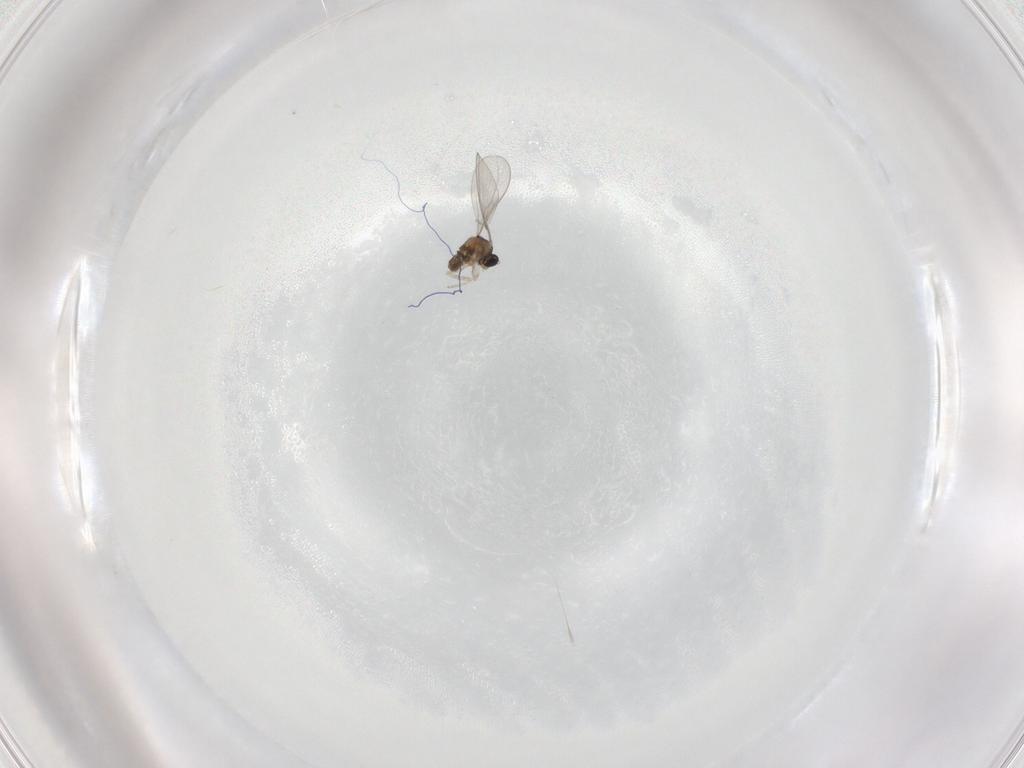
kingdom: Animalia
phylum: Arthropoda
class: Insecta
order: Diptera
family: Cecidomyiidae
